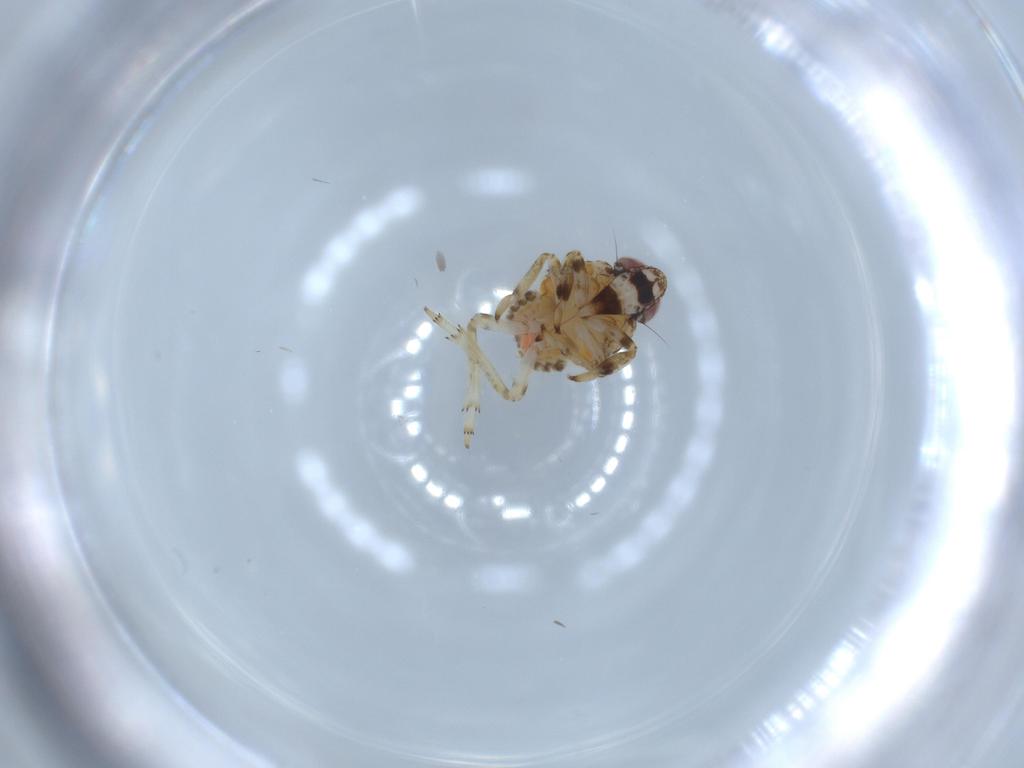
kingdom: Animalia
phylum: Arthropoda
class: Insecta
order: Hemiptera
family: Issidae
